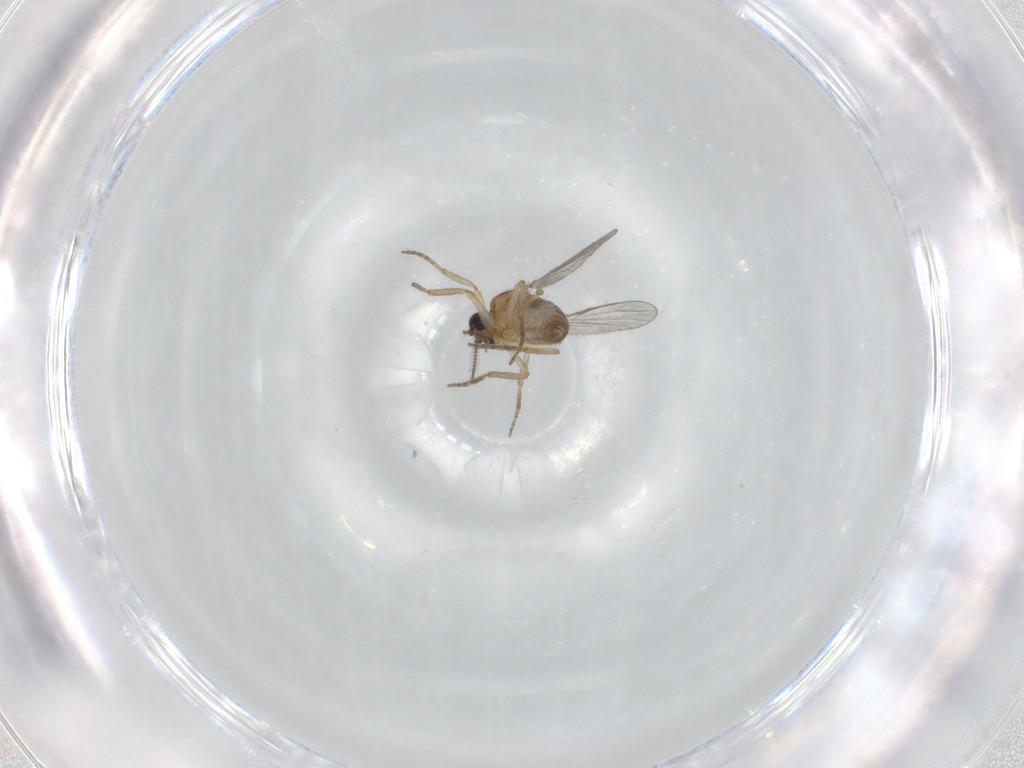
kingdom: Animalia
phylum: Arthropoda
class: Insecta
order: Diptera
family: Ceratopogonidae
